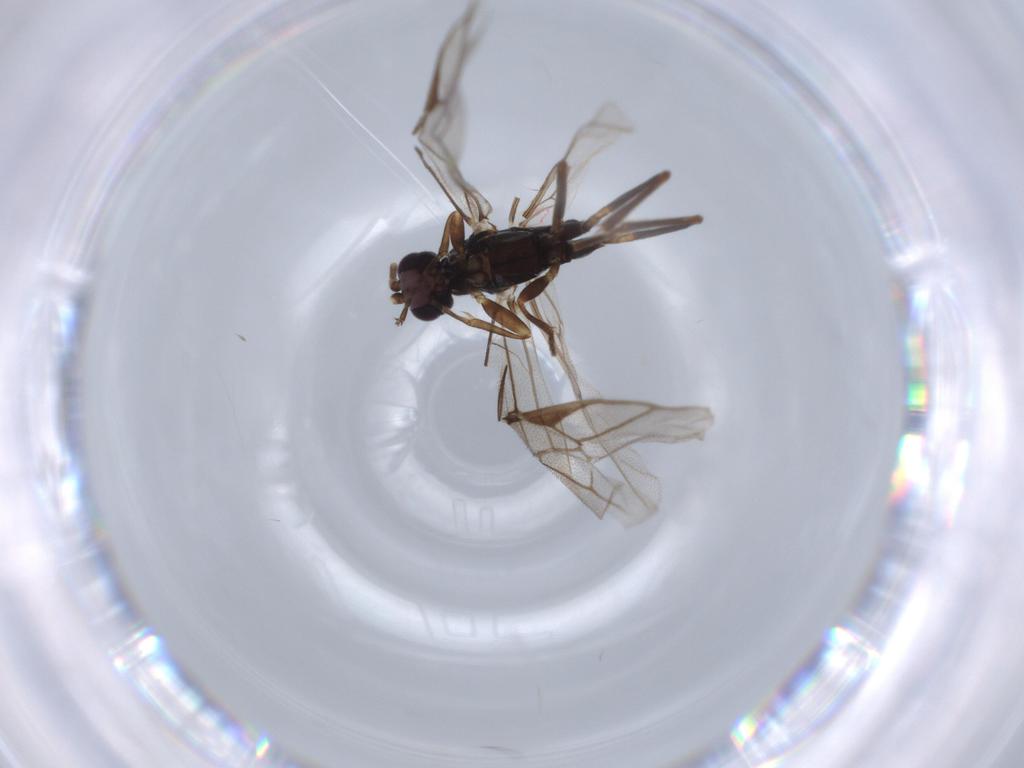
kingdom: Animalia
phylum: Arthropoda
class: Insecta
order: Hymenoptera
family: Ichneumonidae
